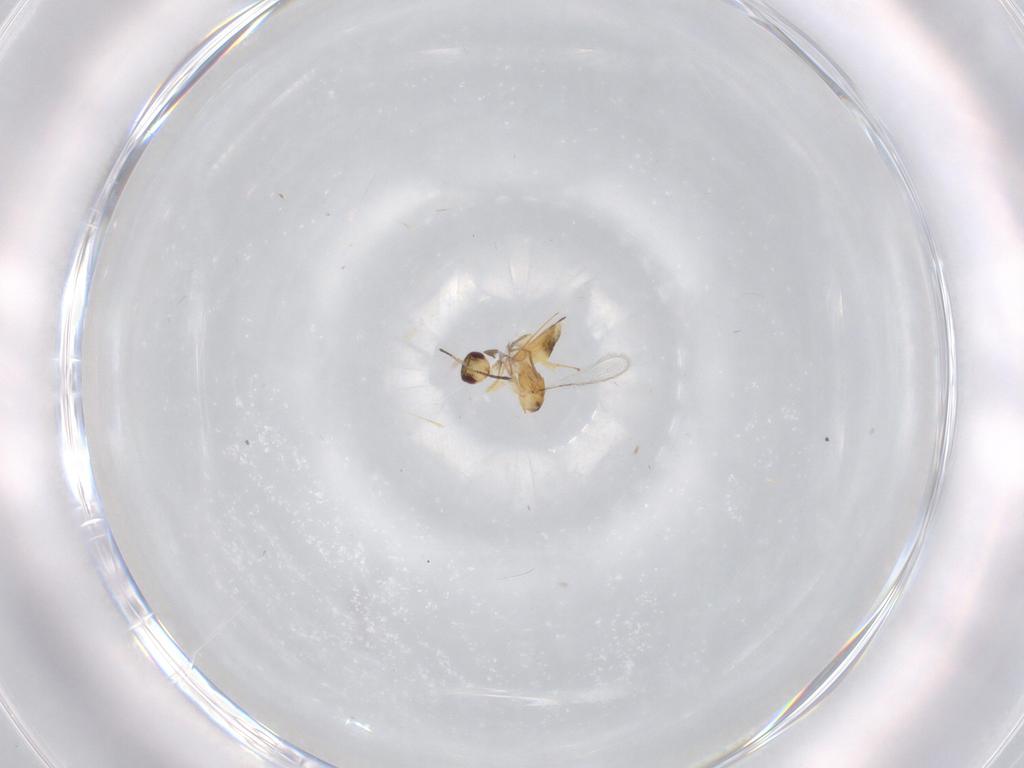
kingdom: Animalia
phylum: Arthropoda
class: Insecta
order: Hymenoptera
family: Mymaridae
